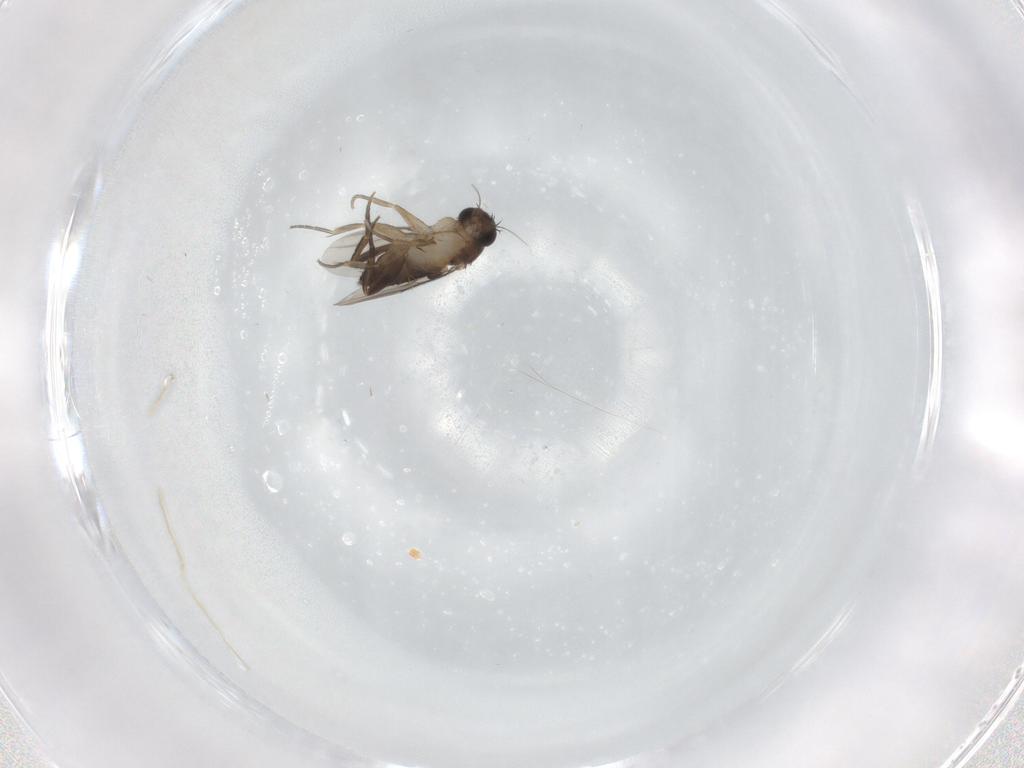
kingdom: Animalia
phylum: Arthropoda
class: Insecta
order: Diptera
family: Phoridae
